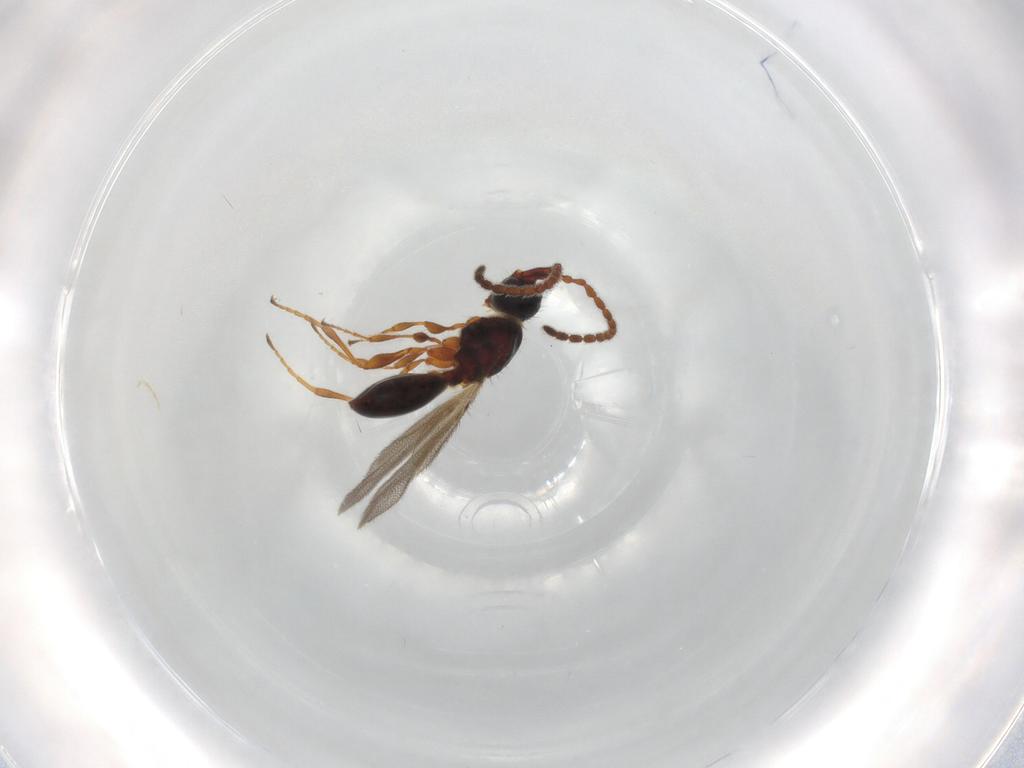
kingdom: Animalia
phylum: Arthropoda
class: Insecta
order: Hymenoptera
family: Diapriidae
